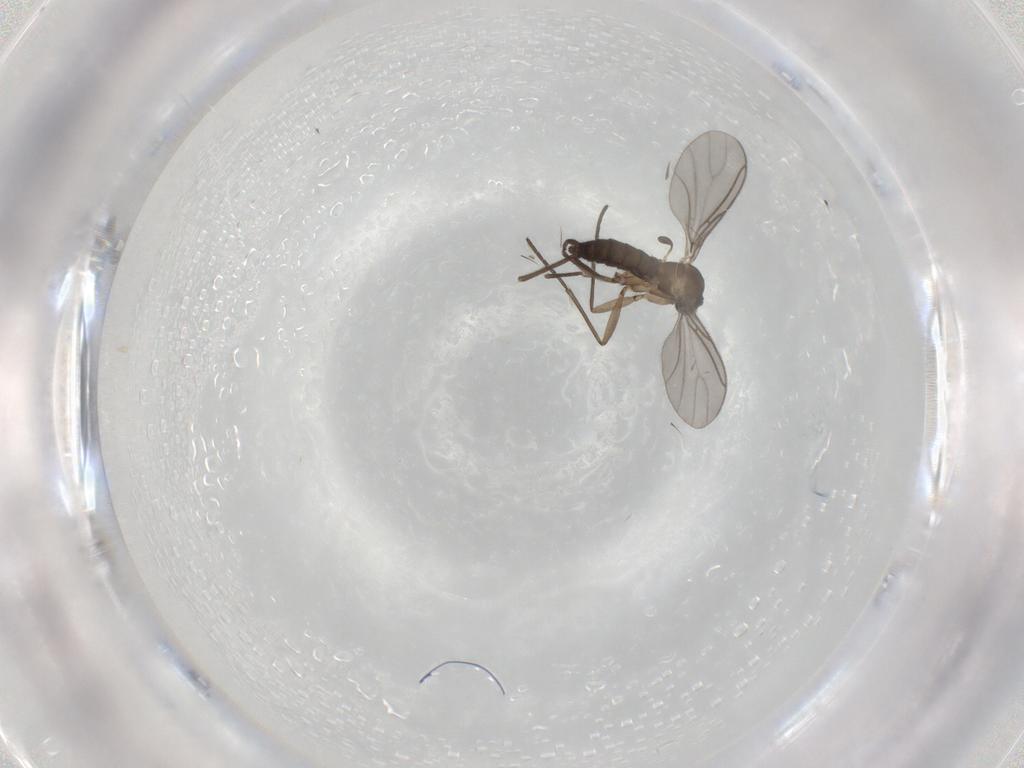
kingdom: Animalia
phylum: Arthropoda
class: Insecta
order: Diptera
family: Sciaridae
